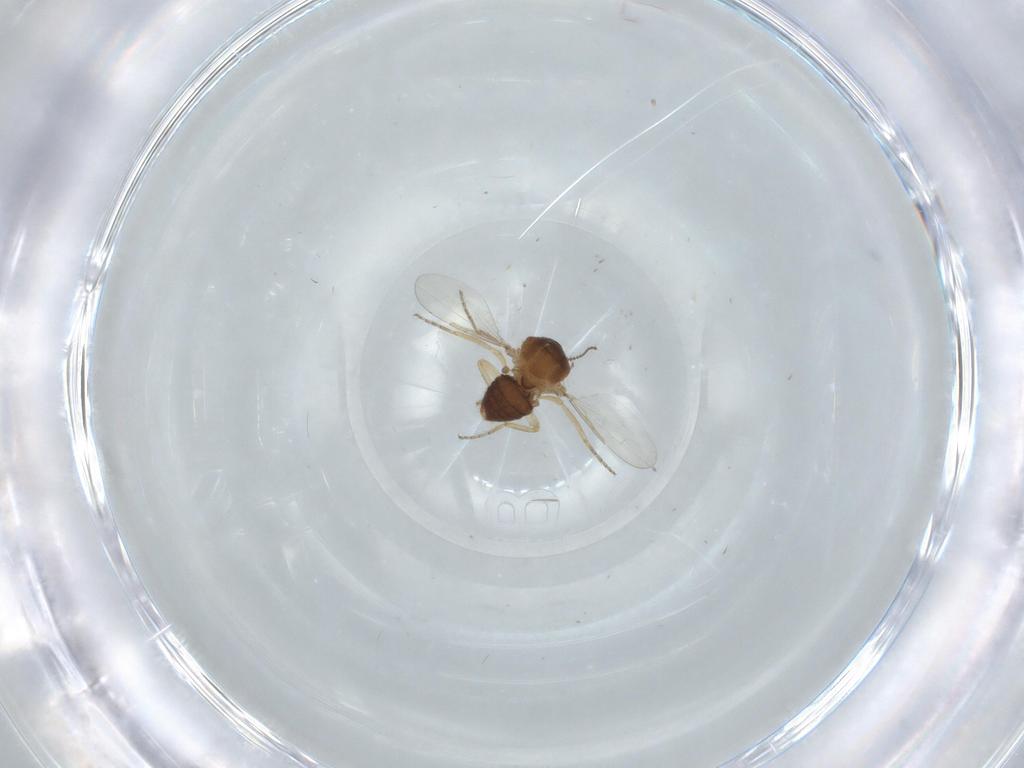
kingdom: Animalia
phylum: Arthropoda
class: Insecta
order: Diptera
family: Ceratopogonidae
